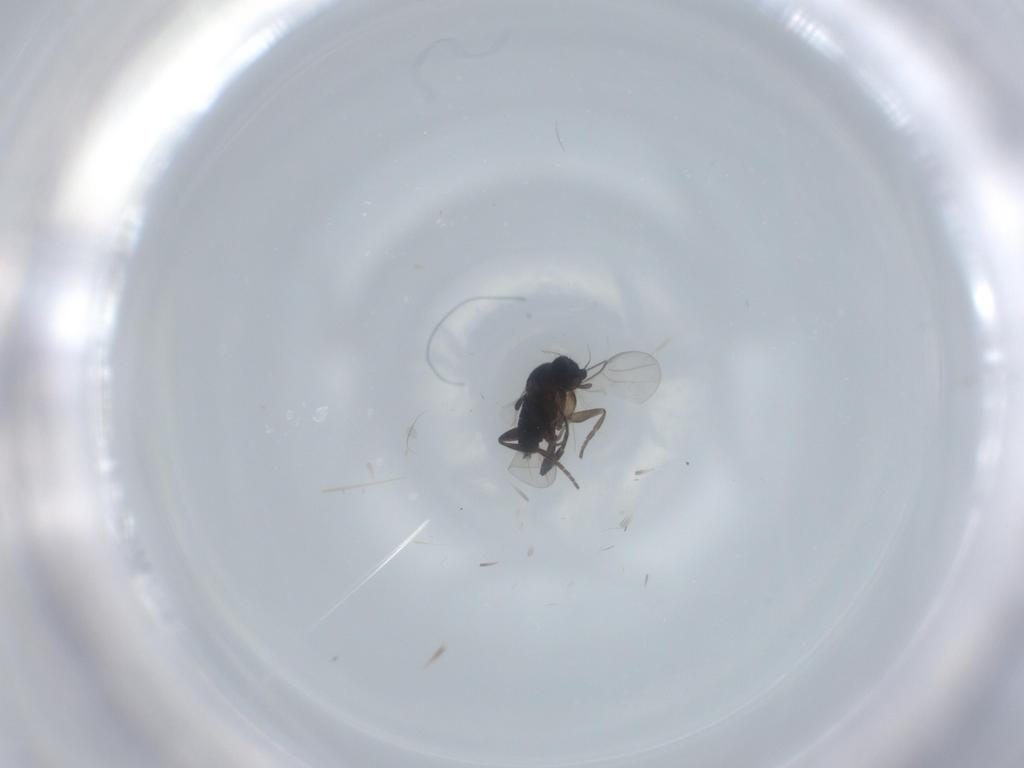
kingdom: Animalia
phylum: Arthropoda
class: Insecta
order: Diptera
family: Phoridae
